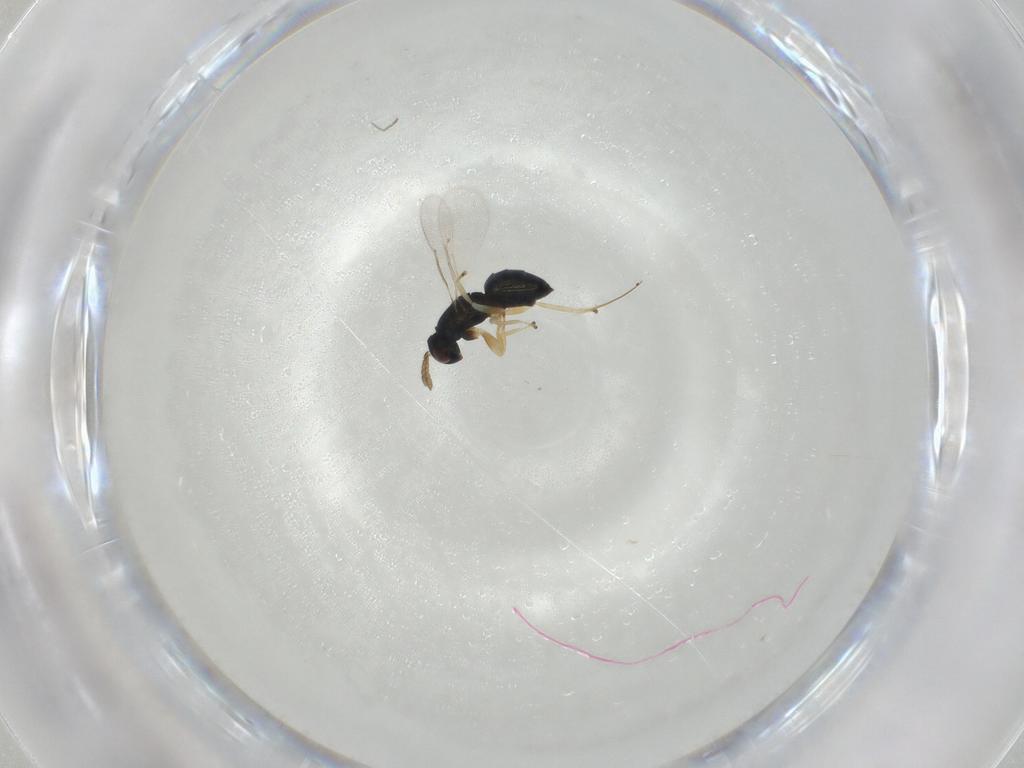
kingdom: Animalia
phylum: Arthropoda
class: Insecta
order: Hymenoptera
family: Eulophidae
